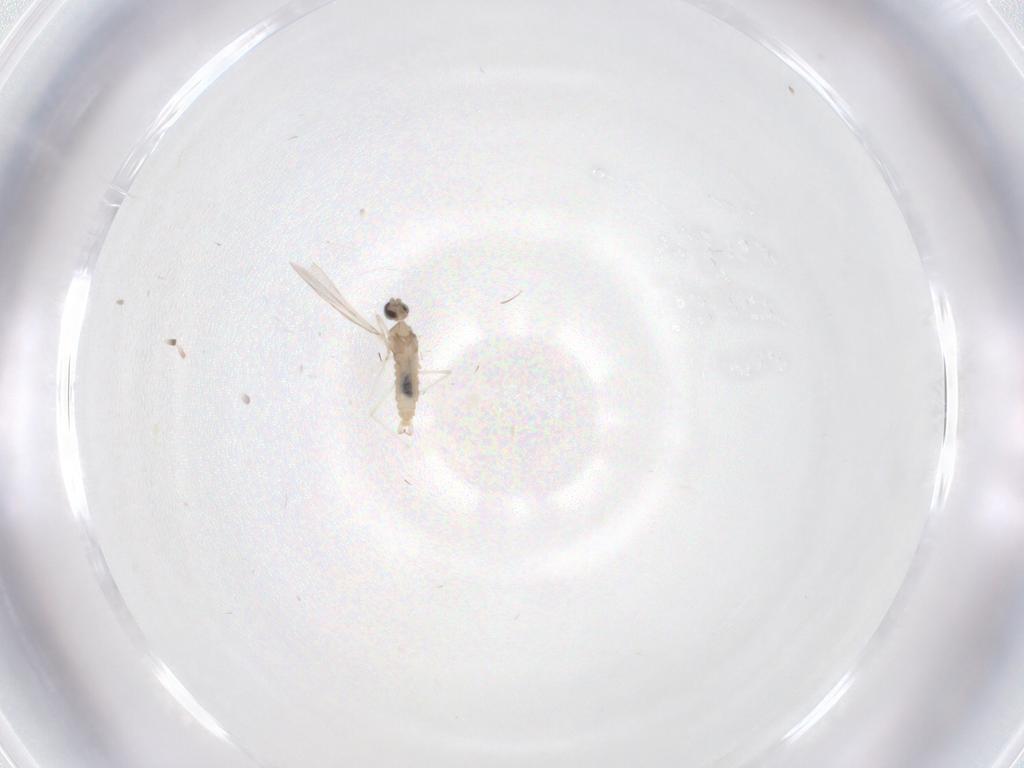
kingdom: Animalia
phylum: Arthropoda
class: Insecta
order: Diptera
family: Cecidomyiidae
